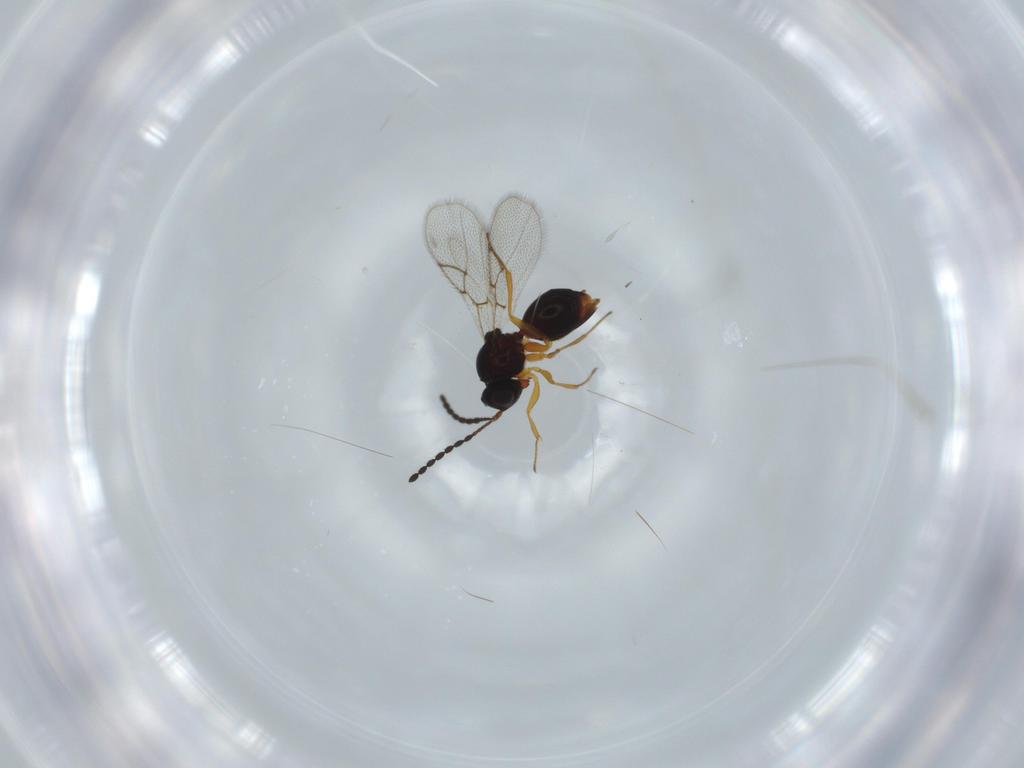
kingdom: Animalia
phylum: Arthropoda
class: Insecta
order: Hymenoptera
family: Figitidae
